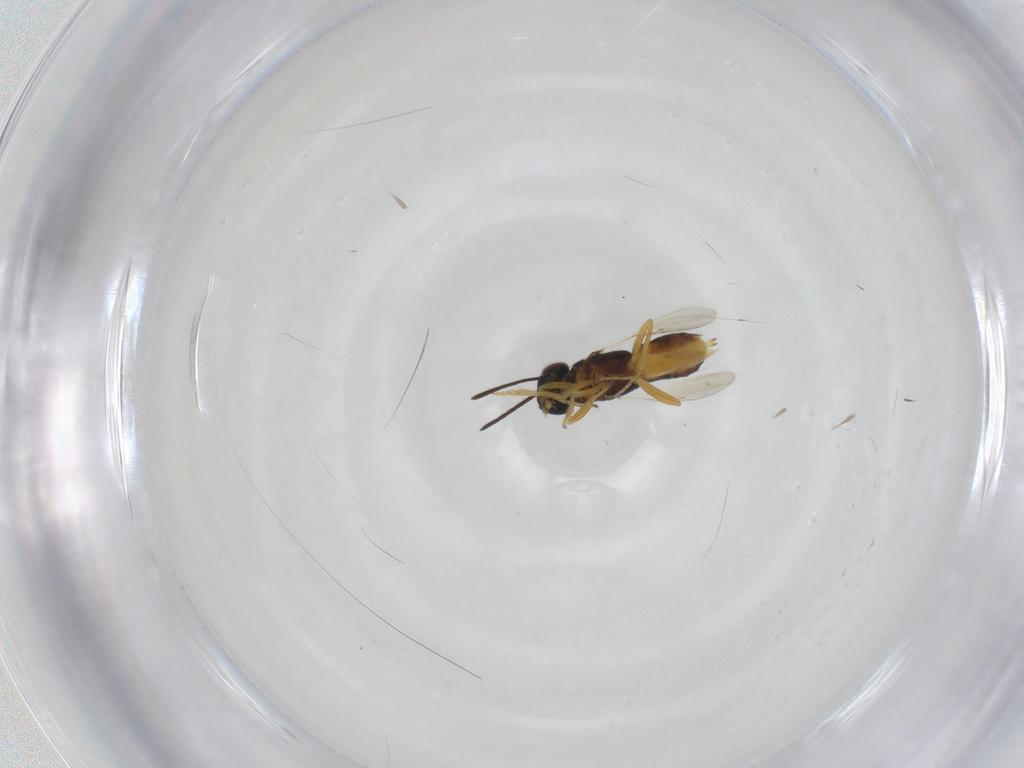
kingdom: Animalia
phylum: Arthropoda
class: Insecta
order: Hymenoptera
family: Encyrtidae
